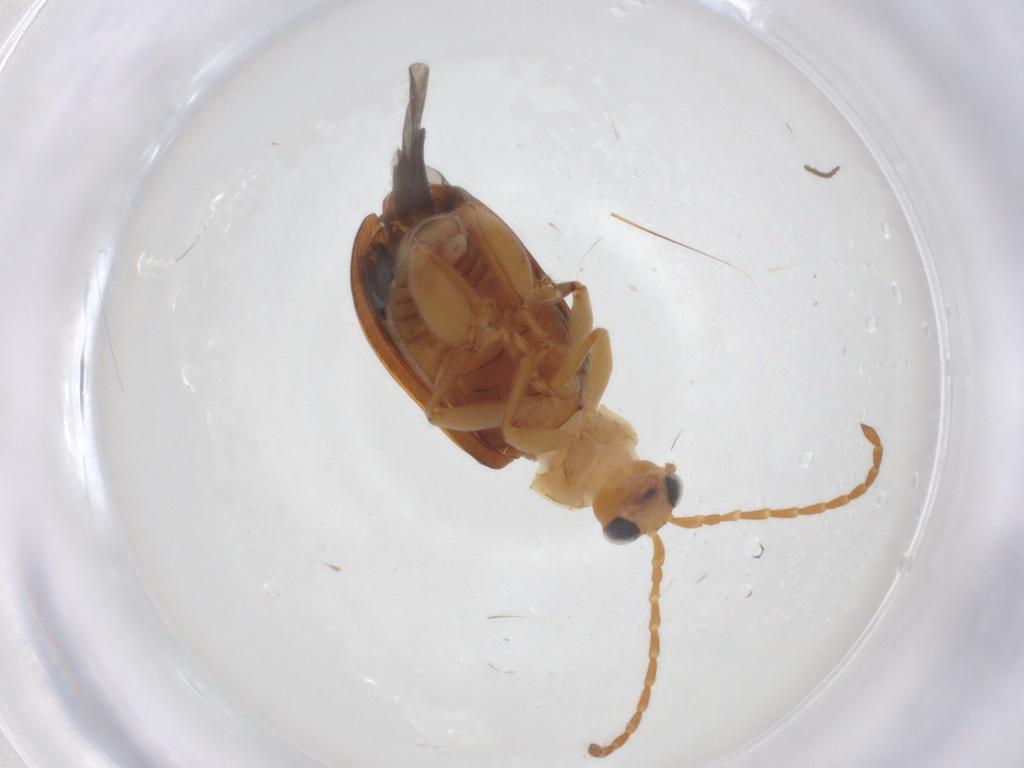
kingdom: Animalia
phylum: Arthropoda
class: Insecta
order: Coleoptera
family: Chrysomelidae
